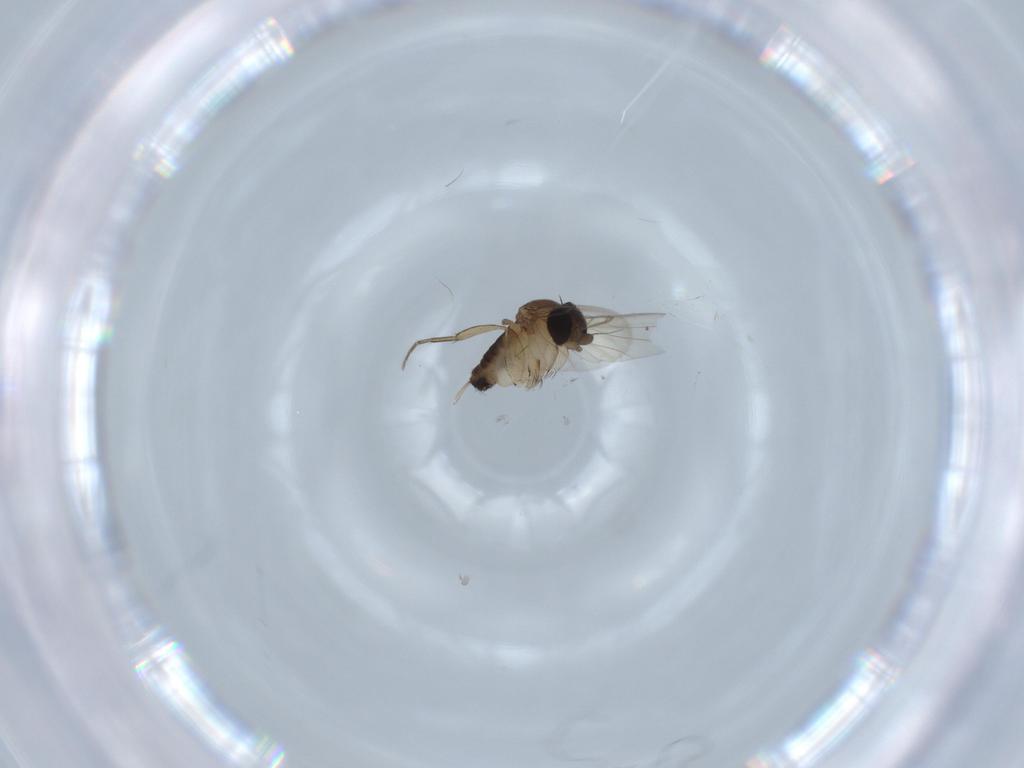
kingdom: Animalia
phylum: Arthropoda
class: Insecta
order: Diptera
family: Phoridae
